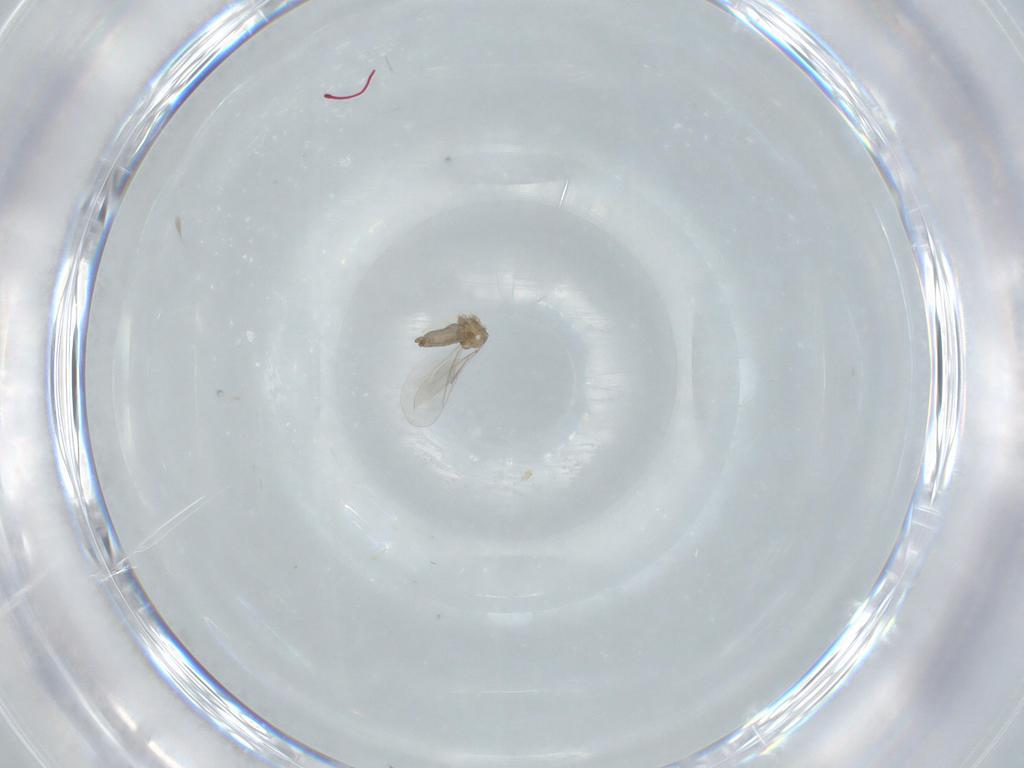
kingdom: Animalia
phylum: Arthropoda
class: Insecta
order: Diptera
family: Cecidomyiidae
